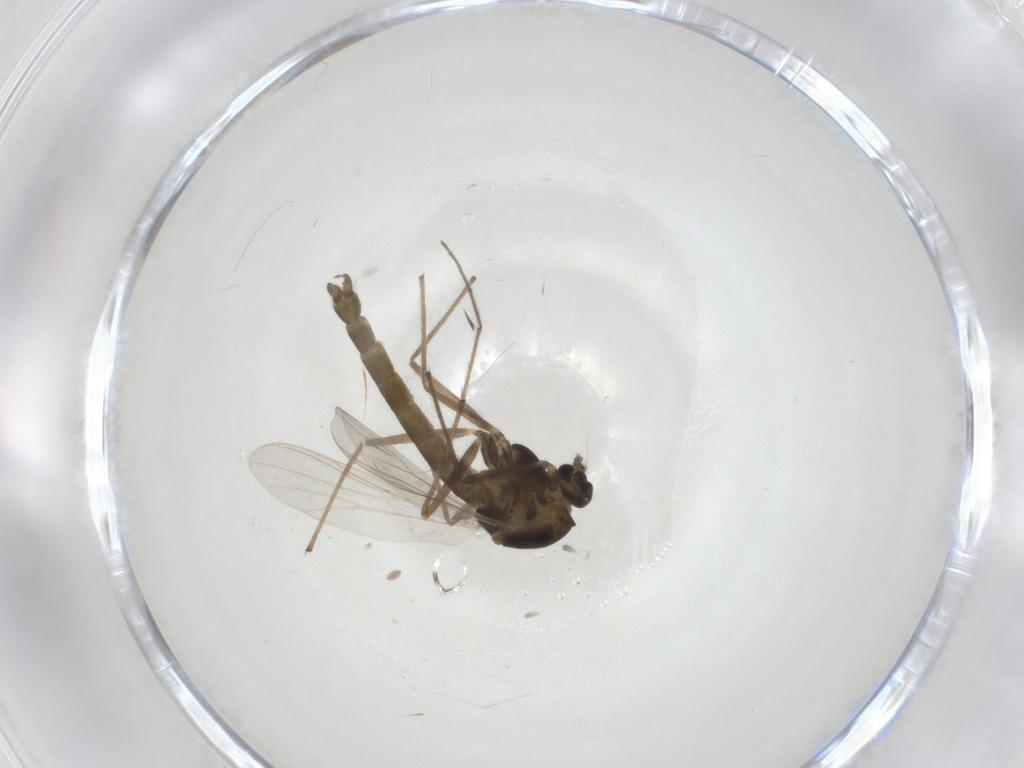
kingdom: Animalia
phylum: Arthropoda
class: Insecta
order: Diptera
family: Chironomidae
